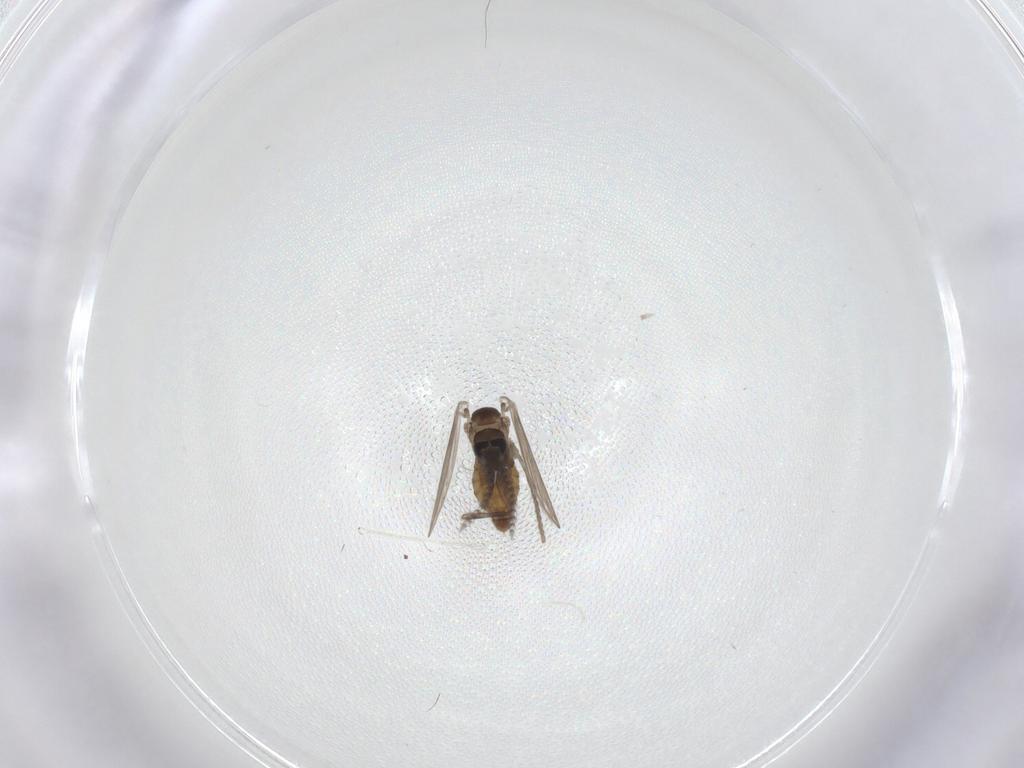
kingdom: Animalia
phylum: Arthropoda
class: Insecta
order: Diptera
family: Psychodidae
